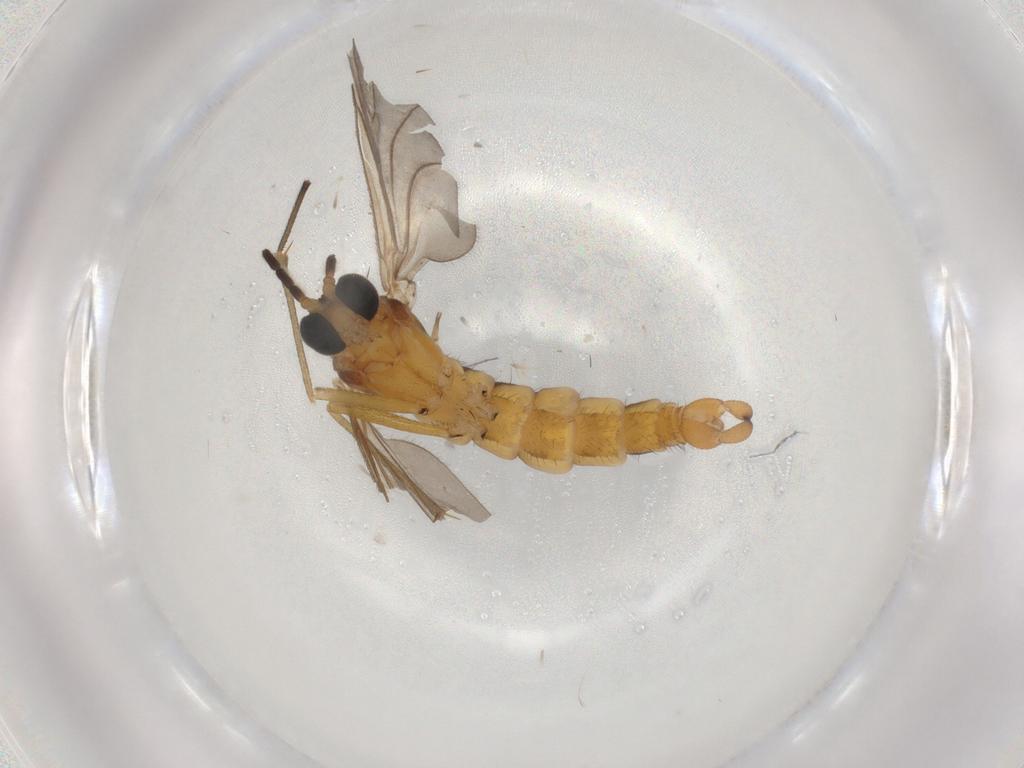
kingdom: Animalia
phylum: Arthropoda
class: Insecta
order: Diptera
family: Sciaridae
